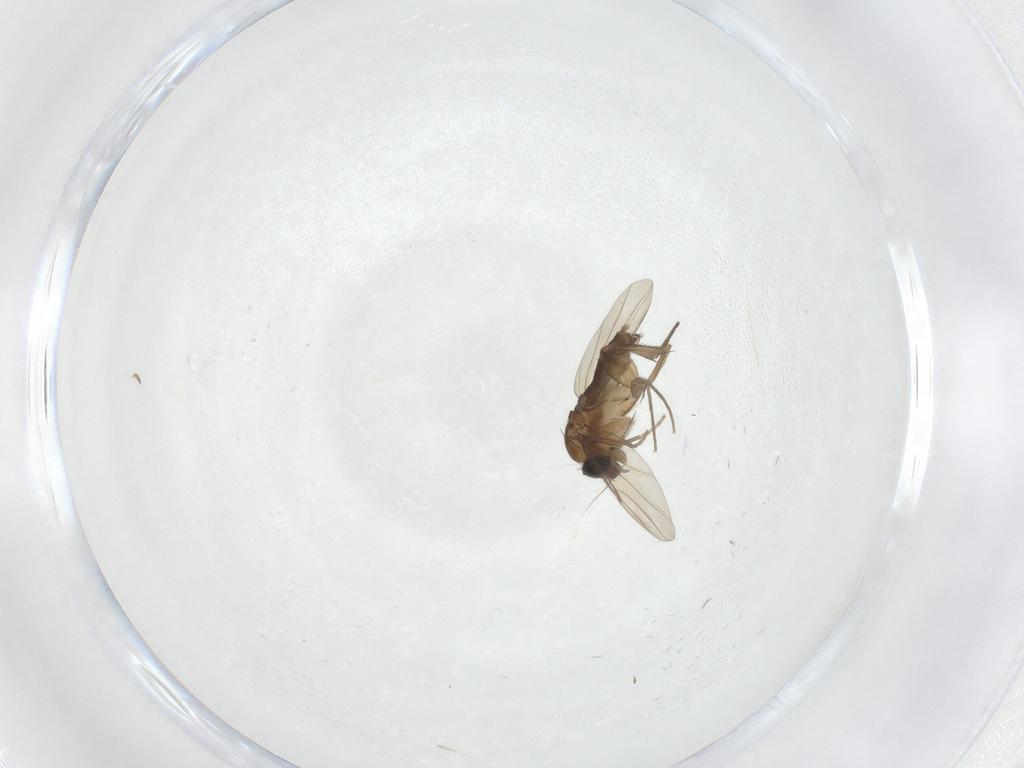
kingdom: Animalia
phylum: Arthropoda
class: Insecta
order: Diptera
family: Phoridae
